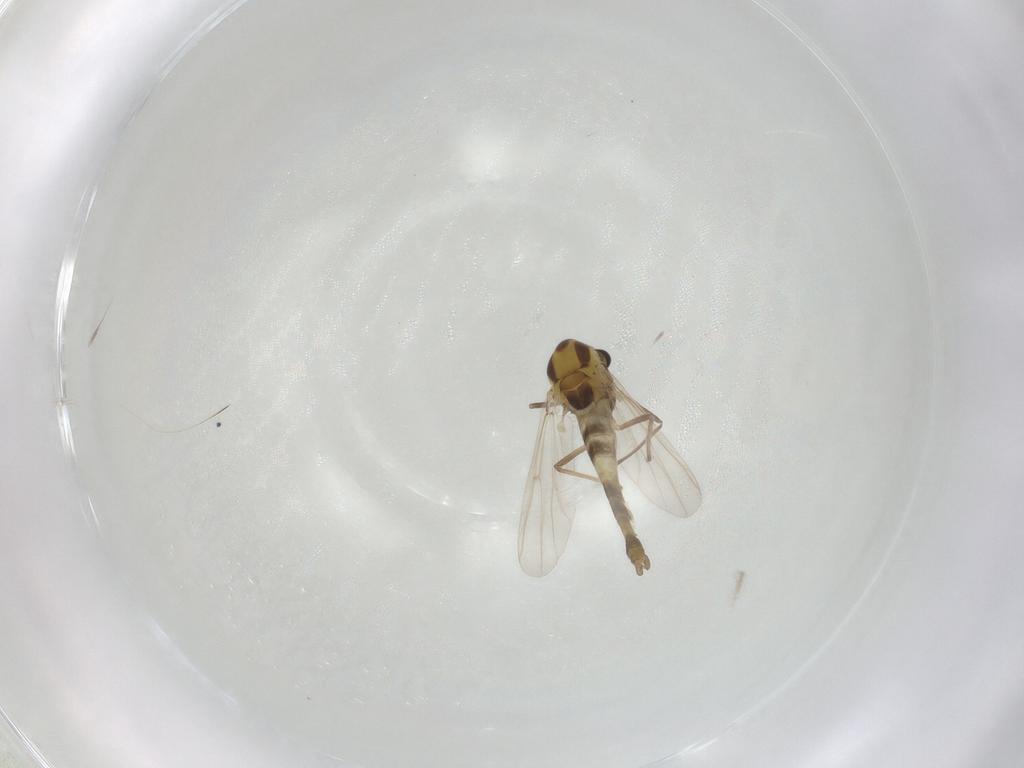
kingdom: Animalia
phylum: Arthropoda
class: Insecta
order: Diptera
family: Chironomidae
